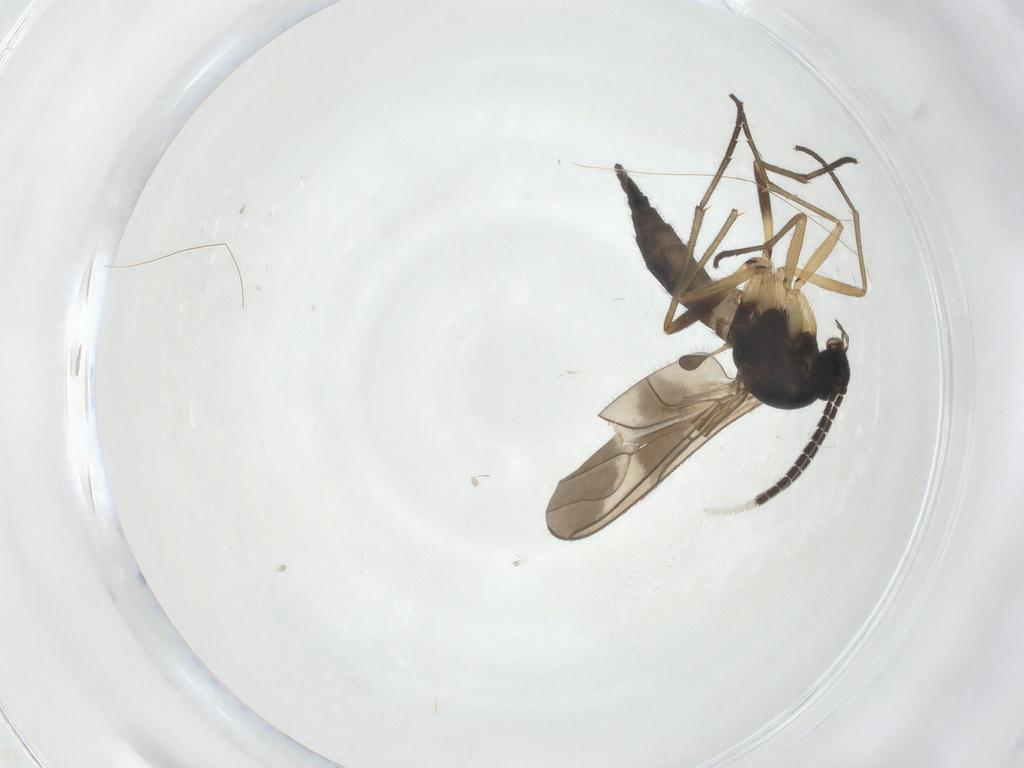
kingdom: Animalia
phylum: Arthropoda
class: Insecta
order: Diptera
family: Sciaridae
